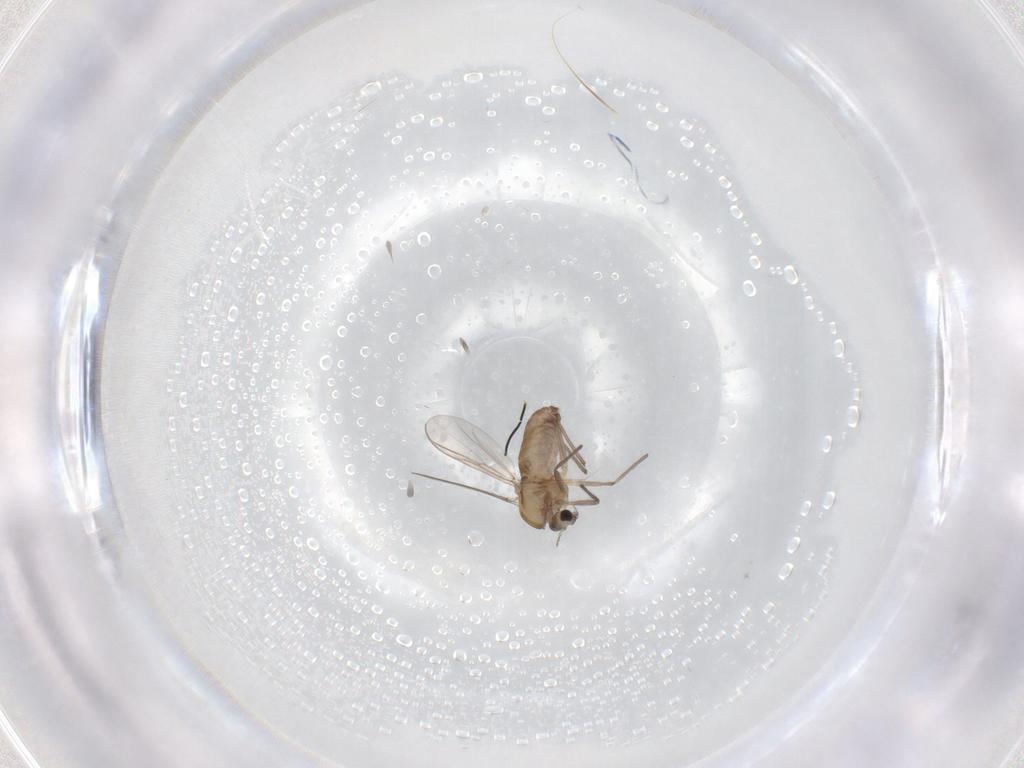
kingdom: Animalia
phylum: Arthropoda
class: Insecta
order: Diptera
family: Chironomidae
